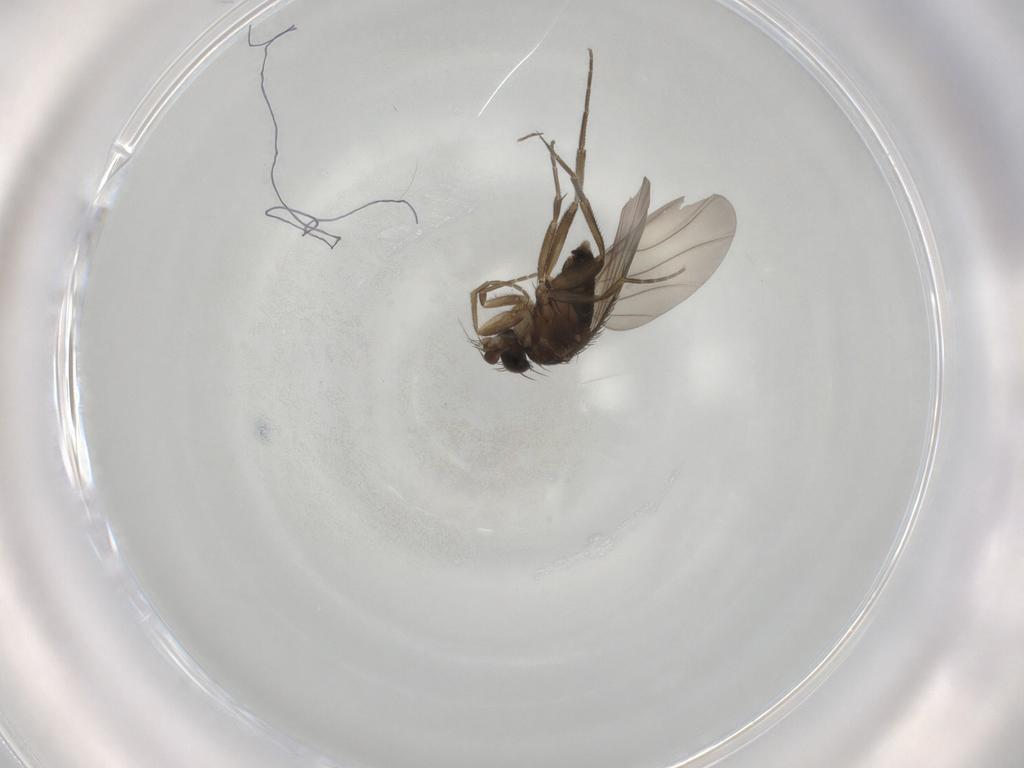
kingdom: Animalia
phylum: Arthropoda
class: Insecta
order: Diptera
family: Phoridae
